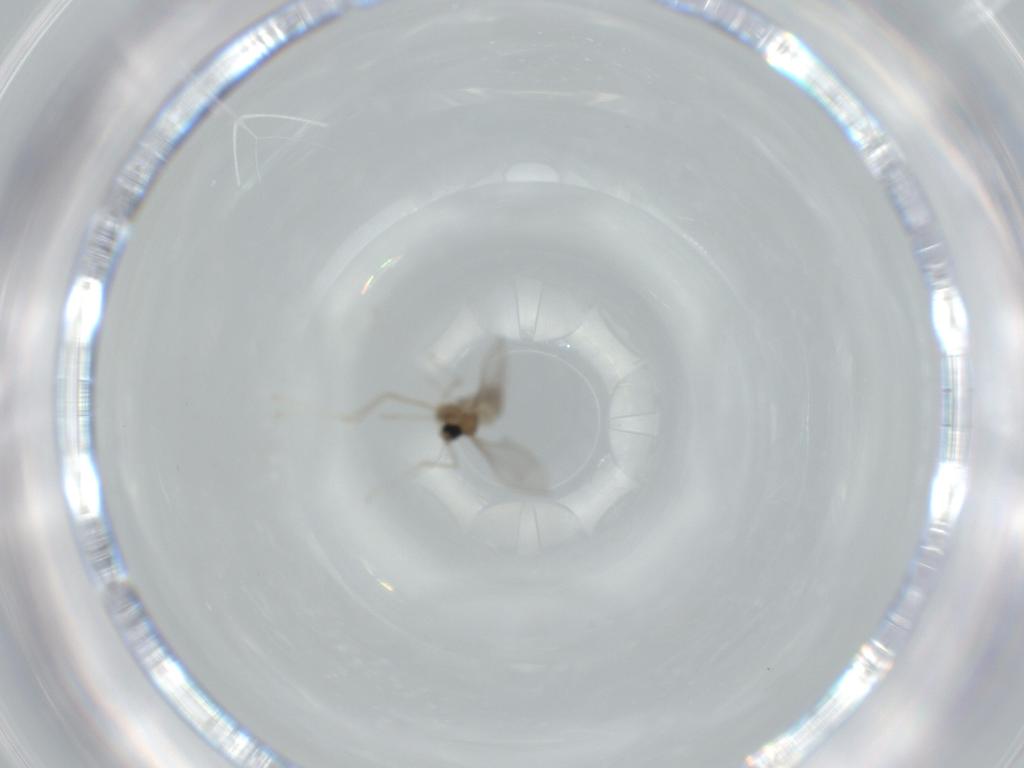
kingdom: Animalia
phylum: Arthropoda
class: Insecta
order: Diptera
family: Cecidomyiidae
